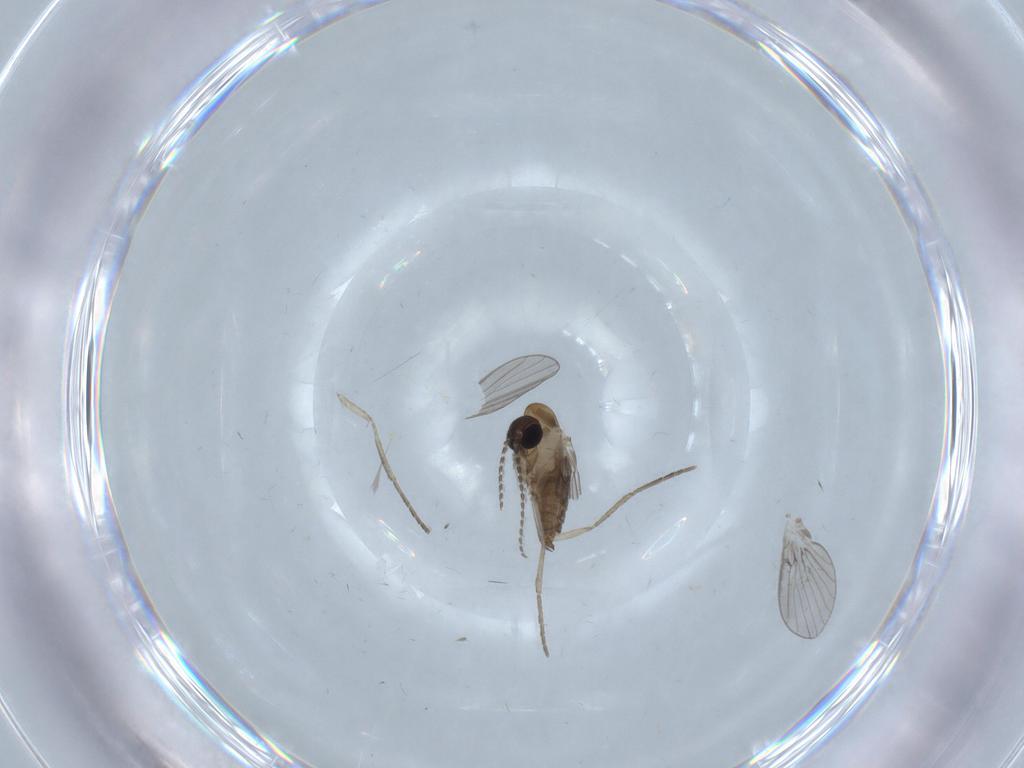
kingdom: Animalia
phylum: Arthropoda
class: Insecta
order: Diptera
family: Psychodidae
